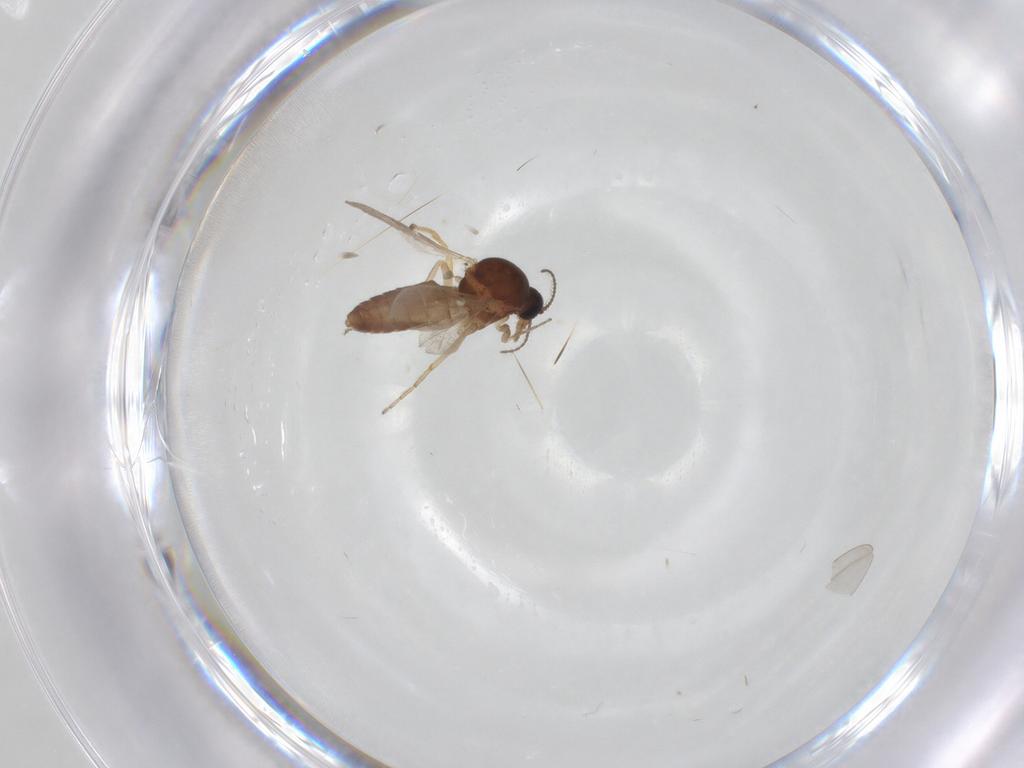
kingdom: Animalia
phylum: Arthropoda
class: Insecta
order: Diptera
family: Ceratopogonidae
